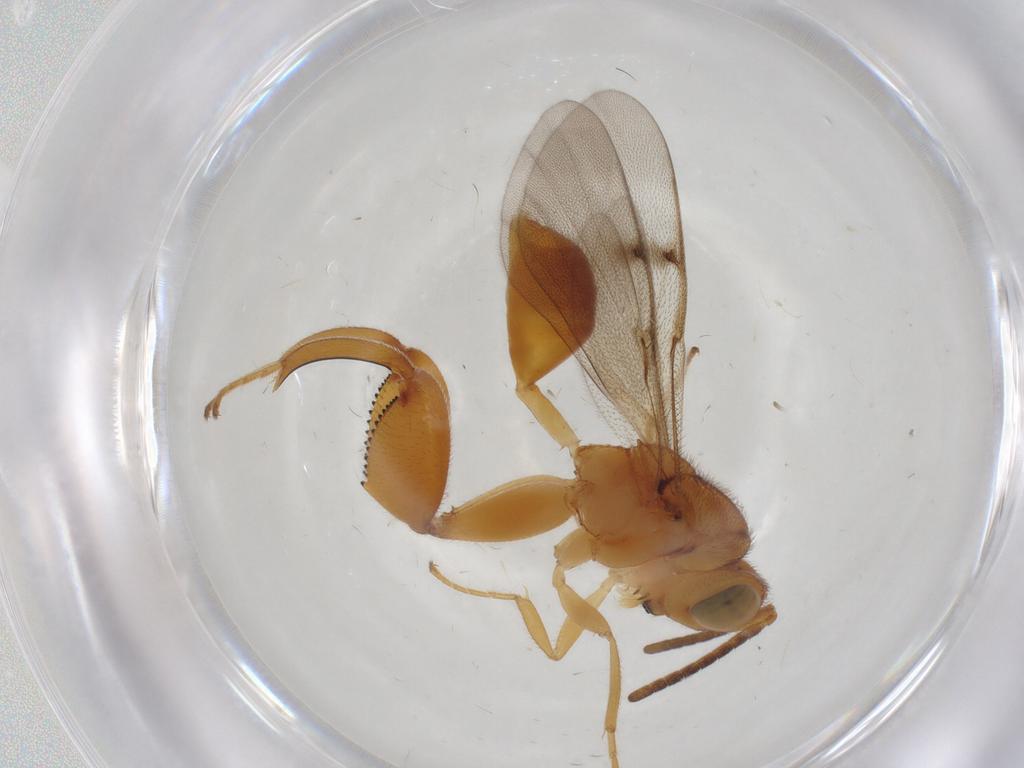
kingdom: Animalia
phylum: Arthropoda
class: Insecta
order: Hymenoptera
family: Chalcididae
